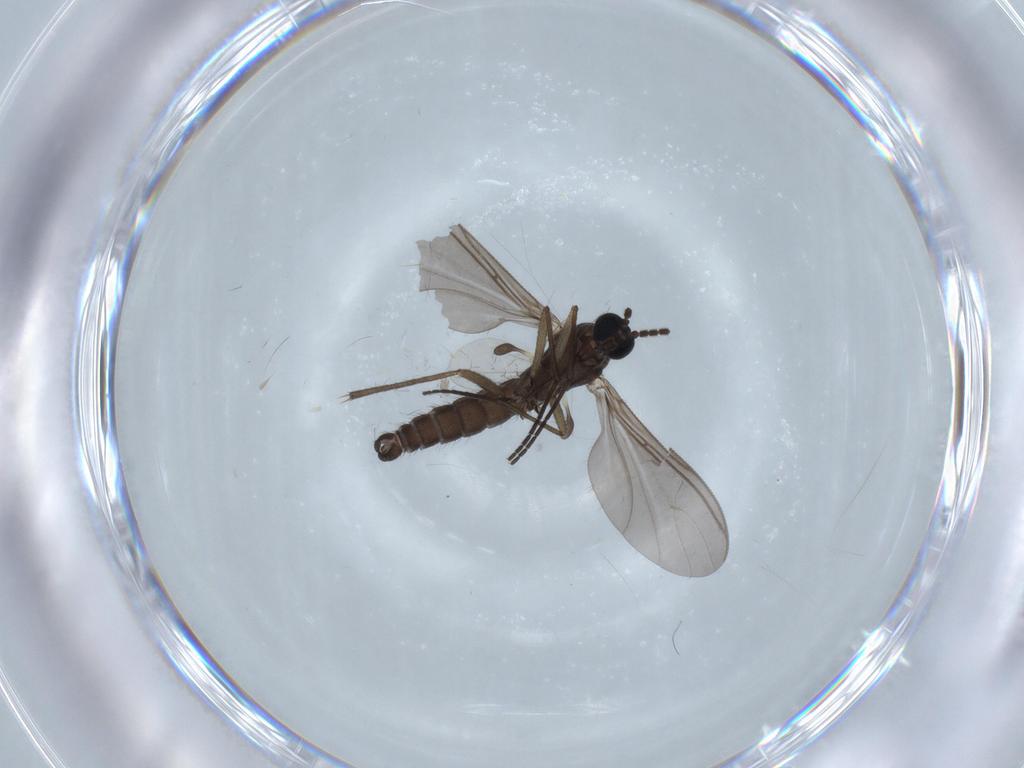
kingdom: Animalia
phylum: Arthropoda
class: Insecta
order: Diptera
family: Sciaridae
